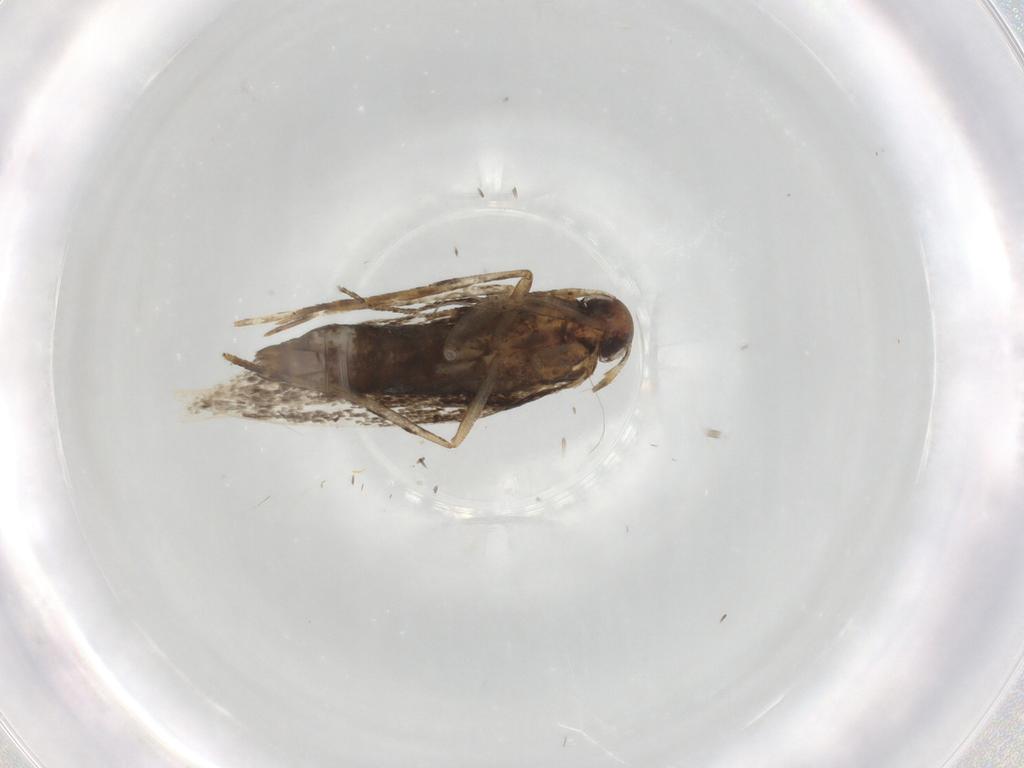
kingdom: Animalia
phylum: Arthropoda
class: Insecta
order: Lepidoptera
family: Cosmopterigidae
